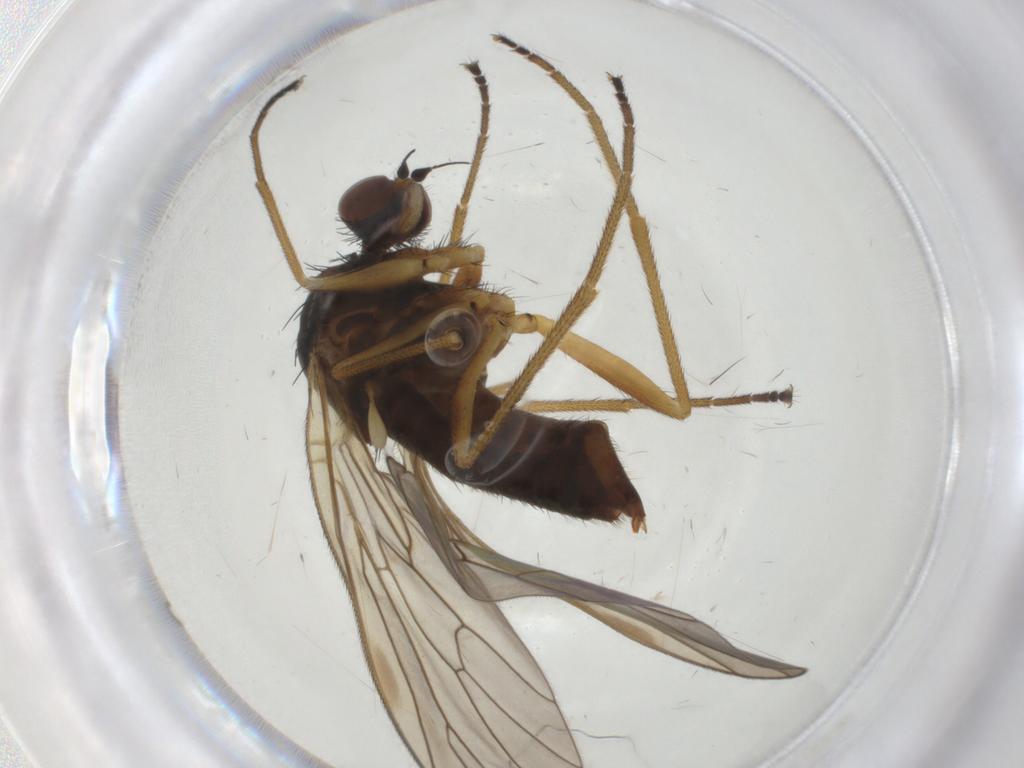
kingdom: Animalia
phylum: Arthropoda
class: Insecta
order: Diptera
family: Brachystomatidae
